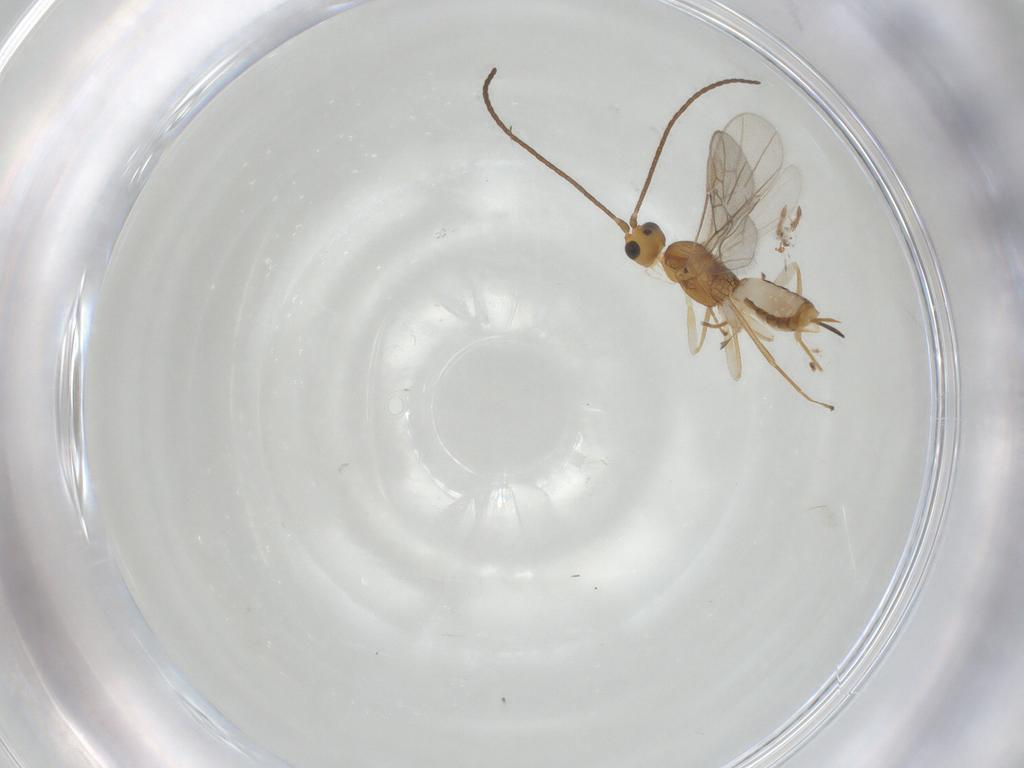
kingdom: Animalia
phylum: Arthropoda
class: Insecta
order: Hymenoptera
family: Braconidae
